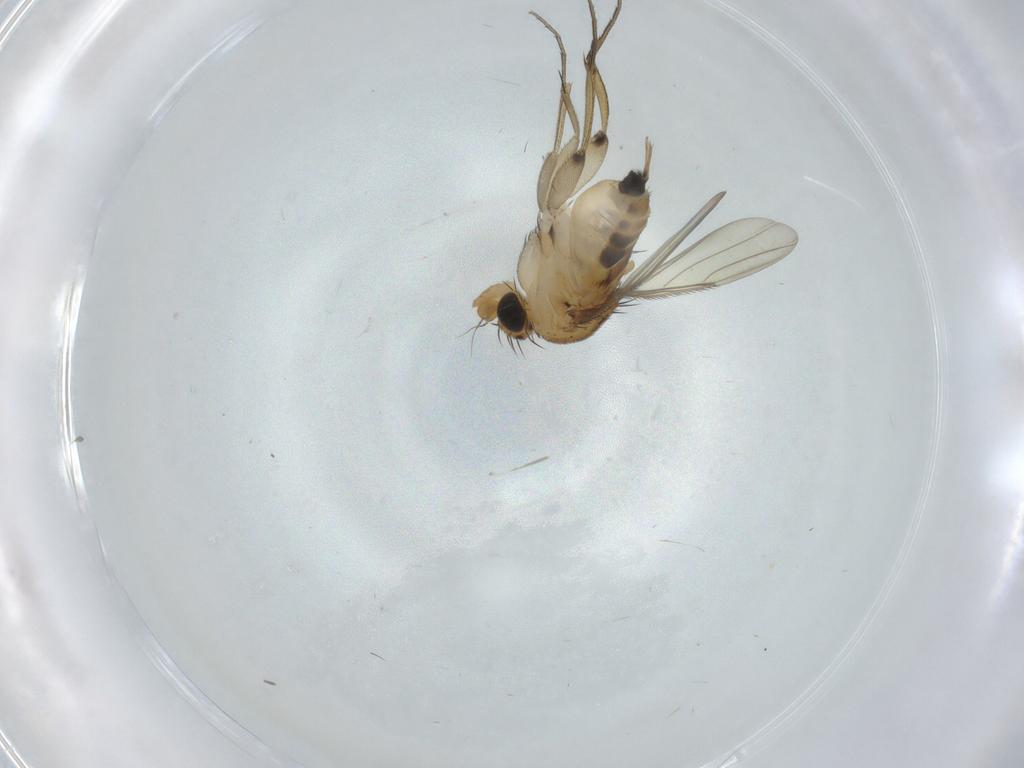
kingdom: Animalia
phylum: Arthropoda
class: Insecta
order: Diptera
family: Phoridae
